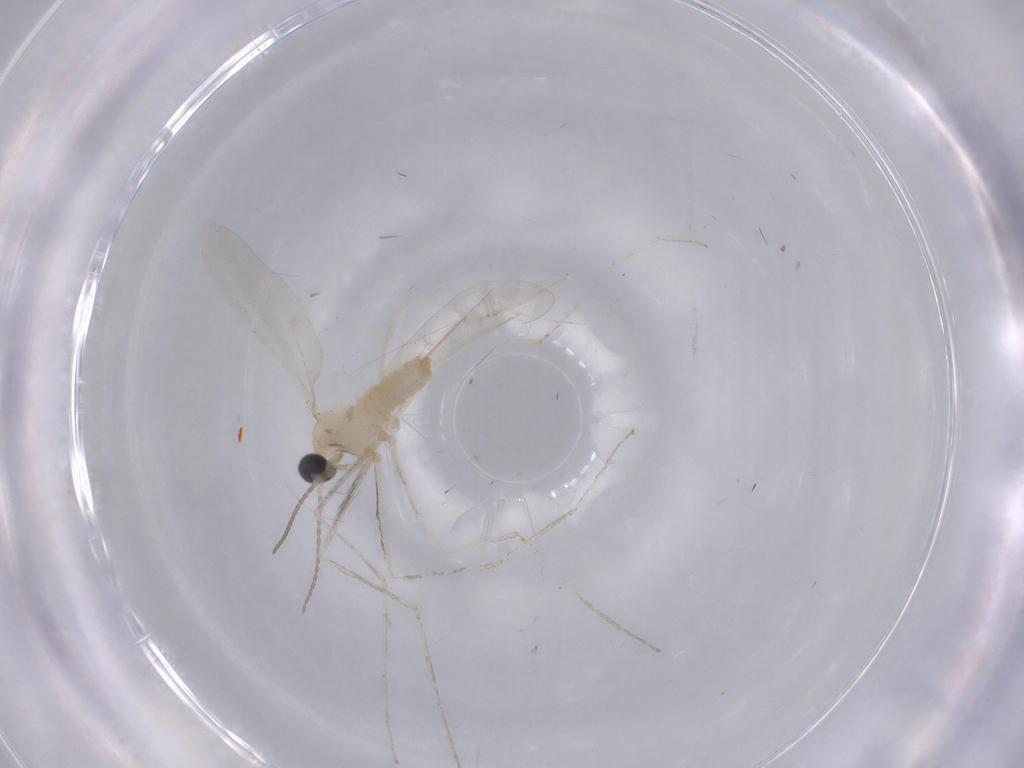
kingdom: Animalia
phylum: Arthropoda
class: Insecta
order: Diptera
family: Cecidomyiidae
